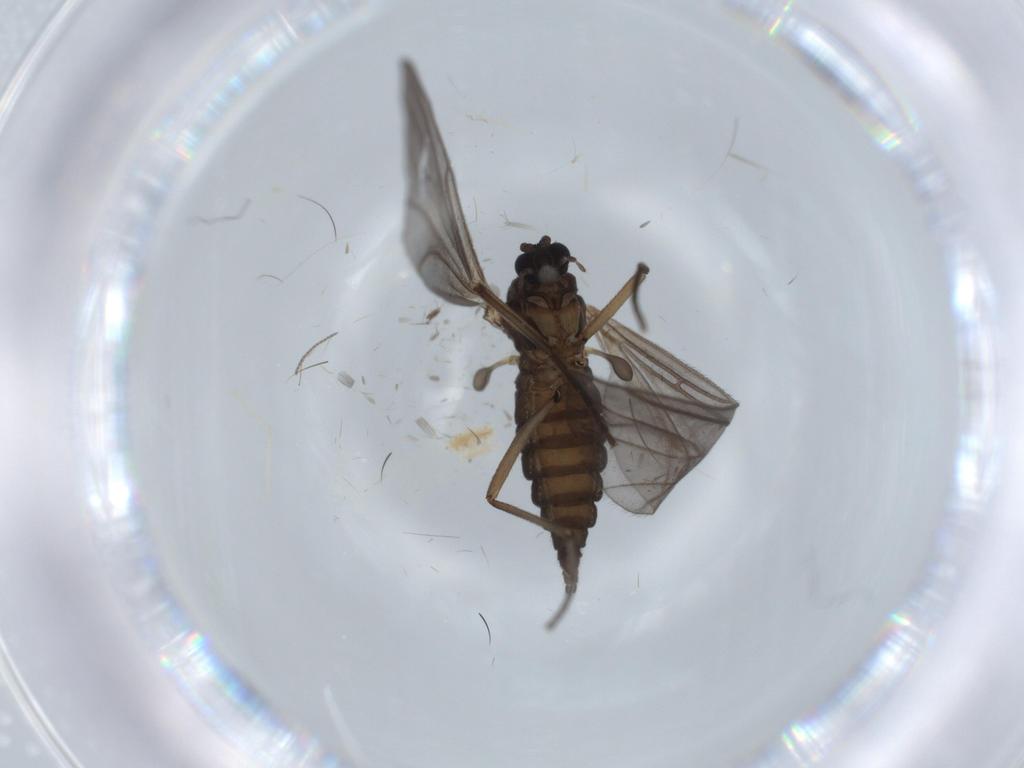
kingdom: Animalia
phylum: Arthropoda
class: Insecta
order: Diptera
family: Sciaridae
